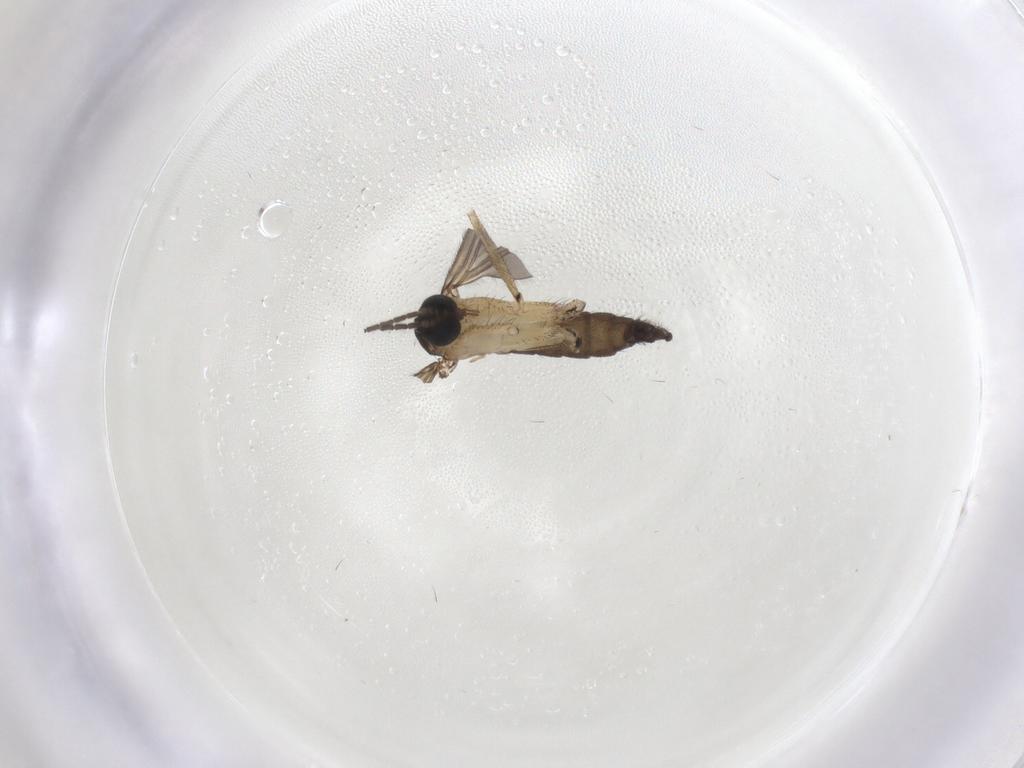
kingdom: Animalia
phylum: Arthropoda
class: Insecta
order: Diptera
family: Sciaridae
